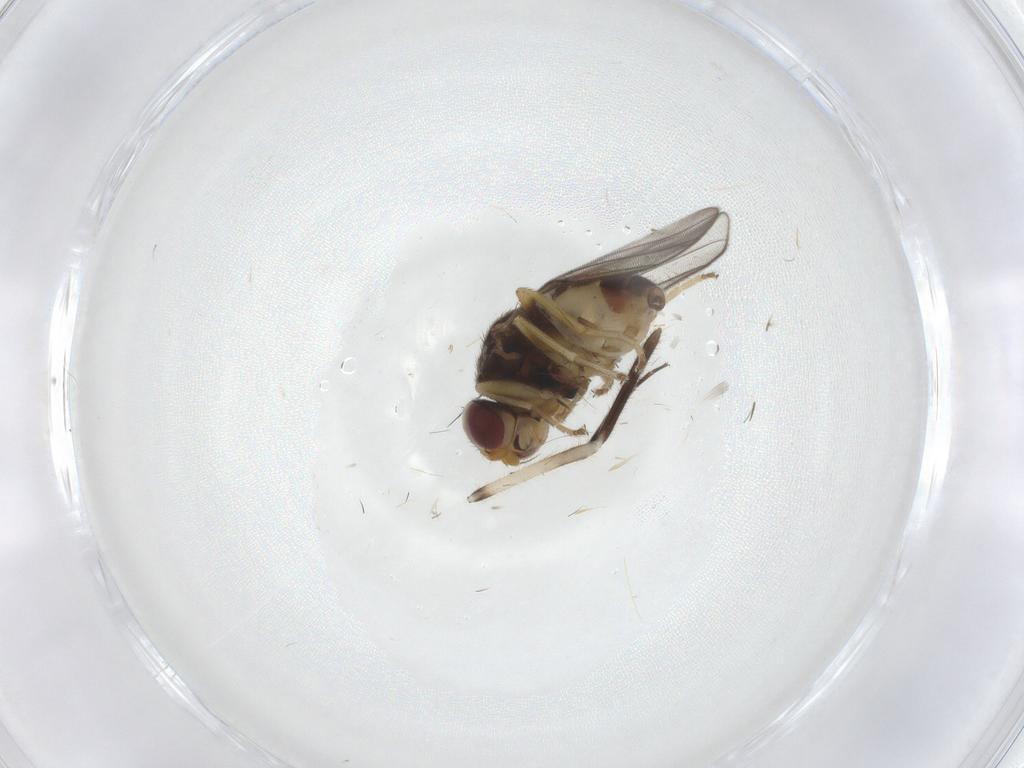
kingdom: Animalia
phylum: Arthropoda
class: Insecta
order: Diptera
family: Chloropidae
